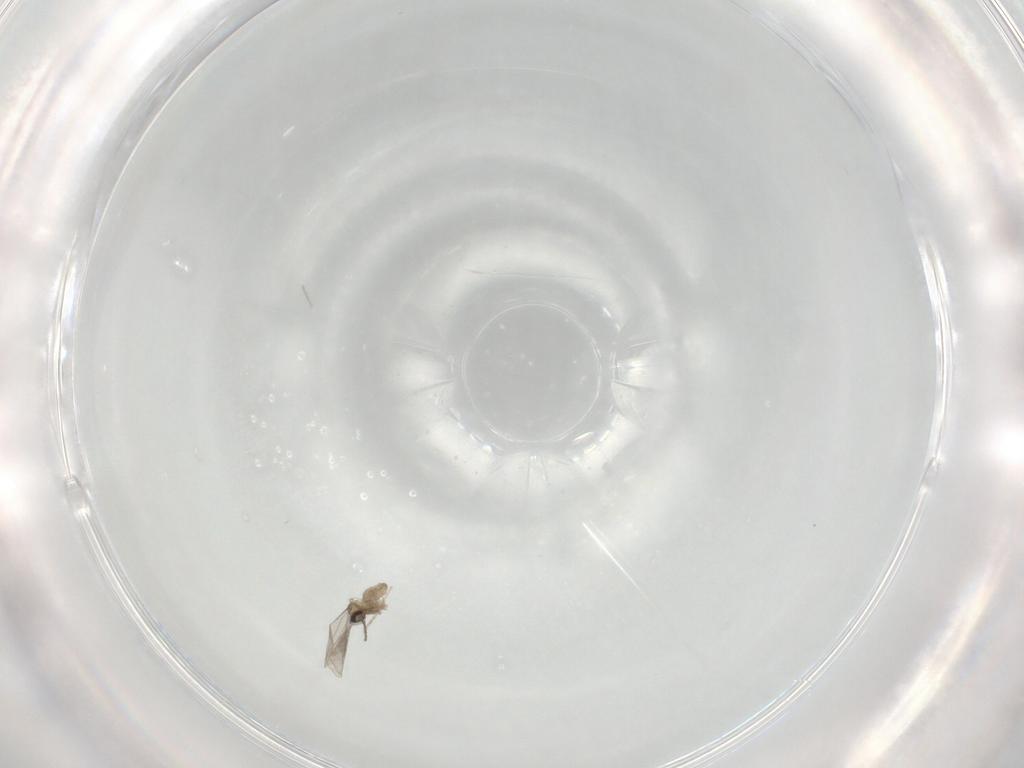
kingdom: Animalia
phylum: Arthropoda
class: Insecta
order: Diptera
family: Cecidomyiidae
